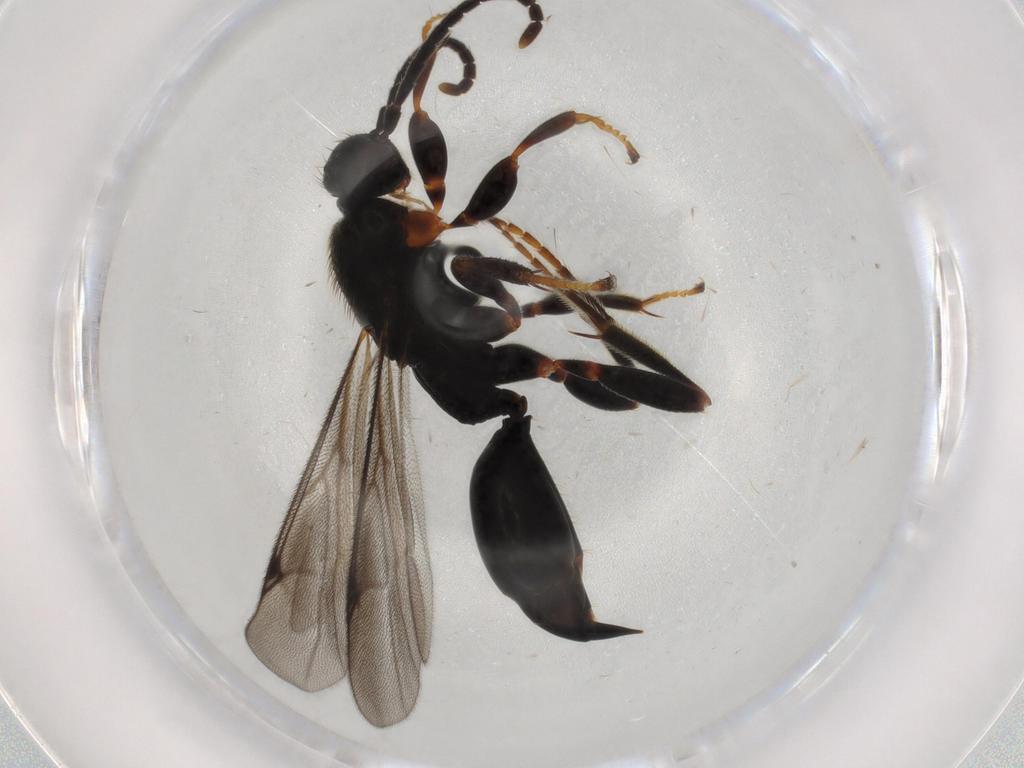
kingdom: Animalia
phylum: Arthropoda
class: Insecta
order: Hymenoptera
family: Proctotrupidae
